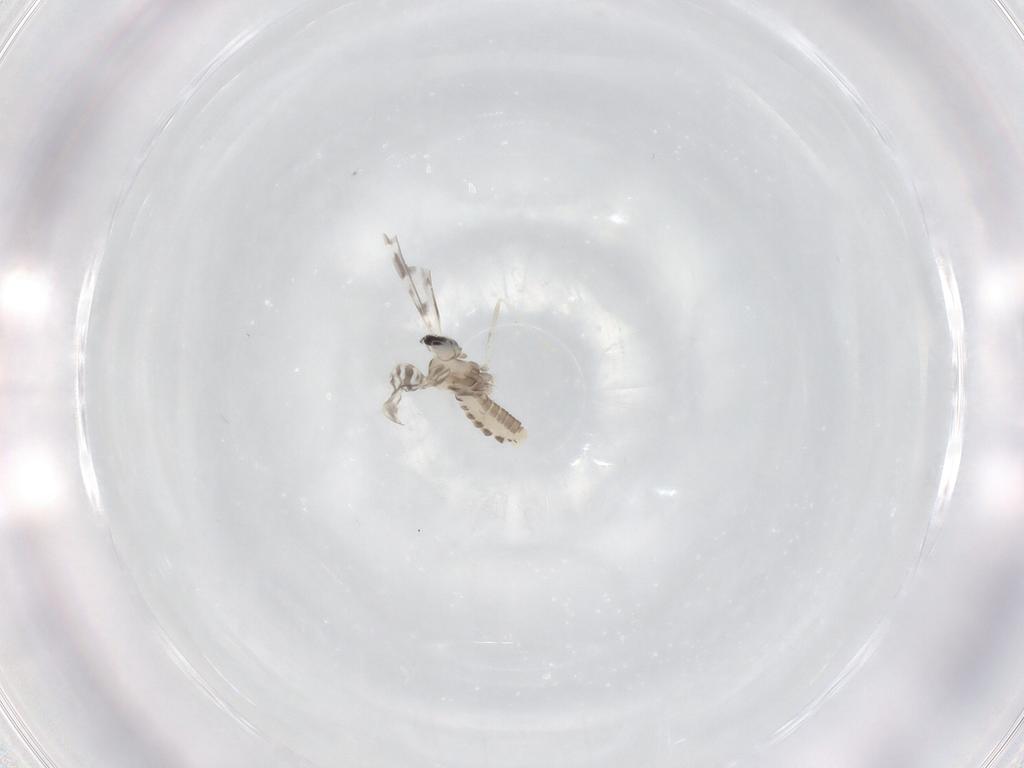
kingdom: Animalia
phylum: Arthropoda
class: Insecta
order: Diptera
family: Cecidomyiidae
